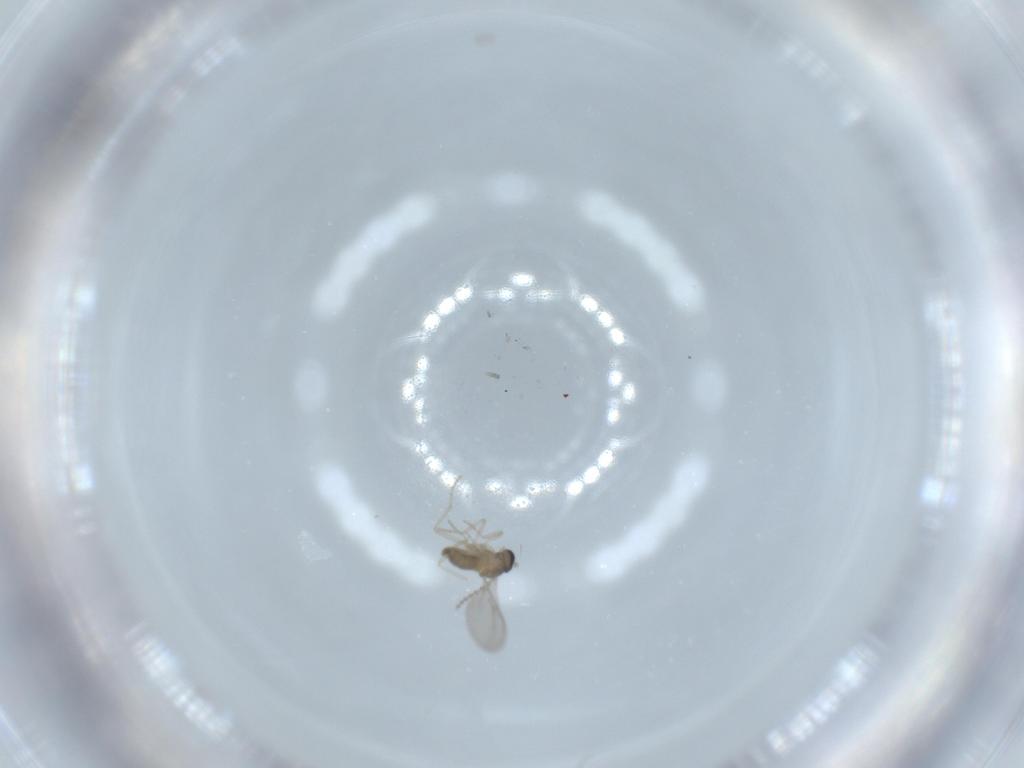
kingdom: Animalia
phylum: Arthropoda
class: Insecta
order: Diptera
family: Cecidomyiidae
